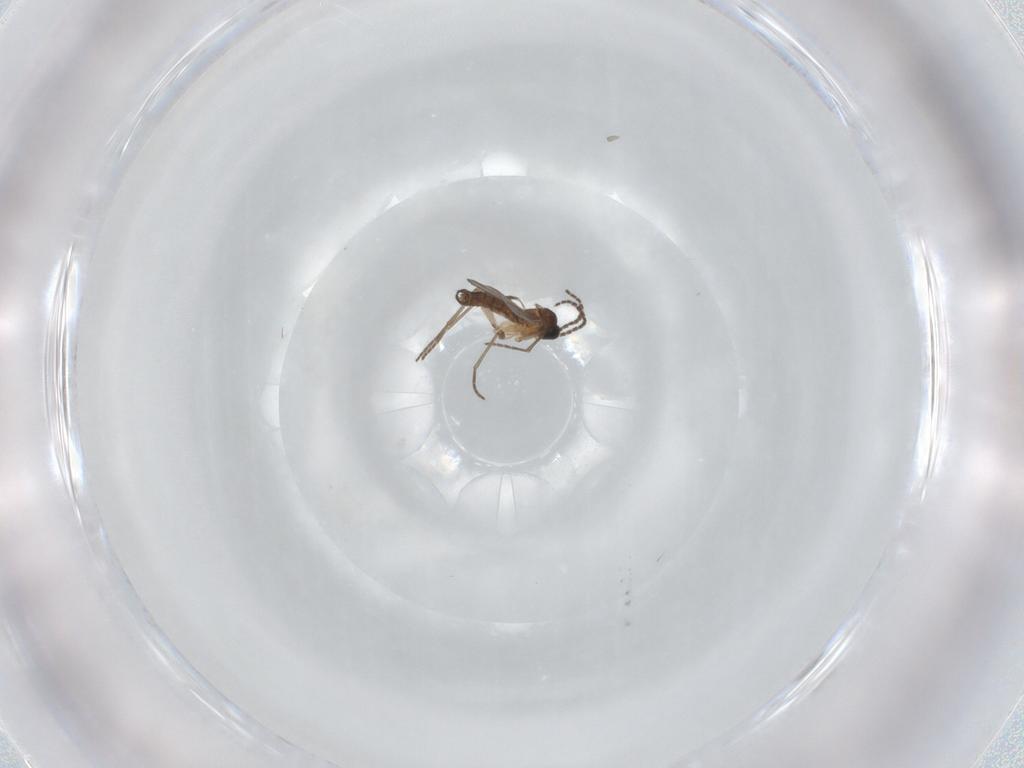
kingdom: Animalia
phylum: Arthropoda
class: Insecta
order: Diptera
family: Sciaridae
